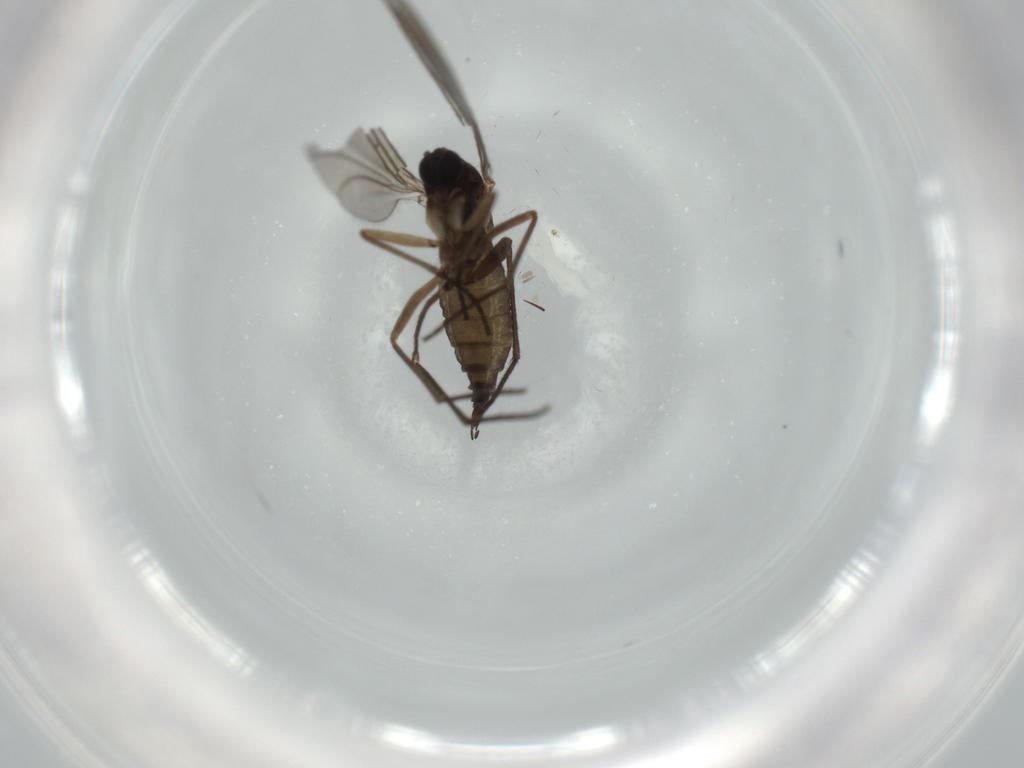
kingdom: Animalia
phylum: Arthropoda
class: Insecta
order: Diptera
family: Sciaridae
